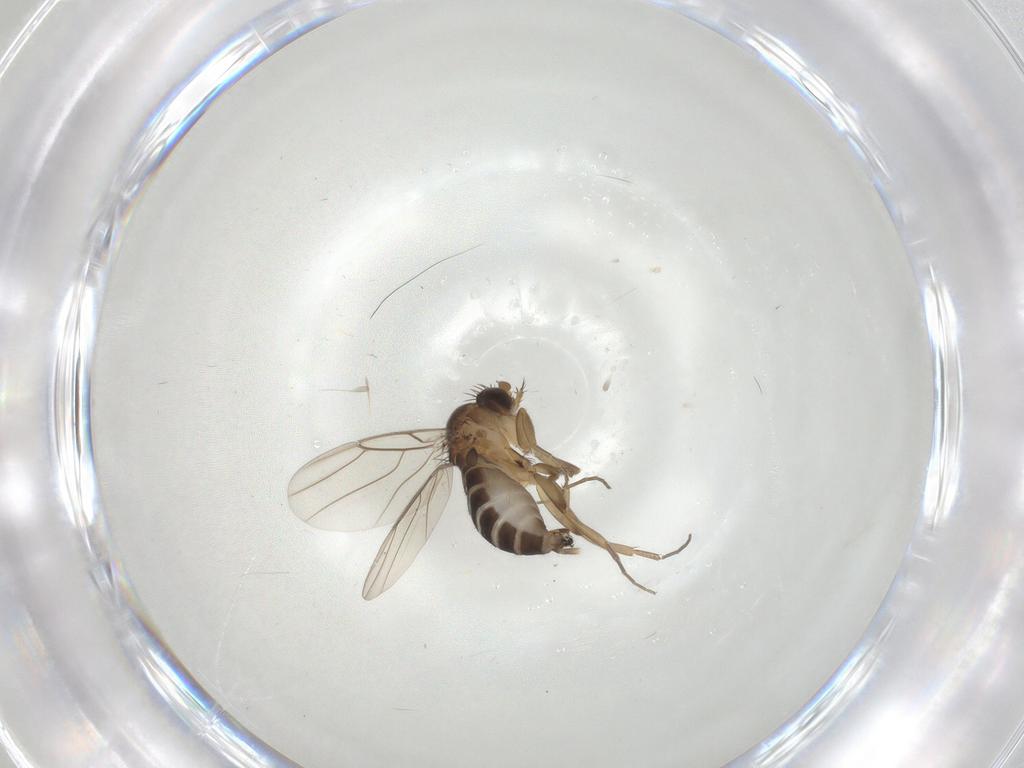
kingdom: Animalia
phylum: Arthropoda
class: Insecta
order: Diptera
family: Phoridae
